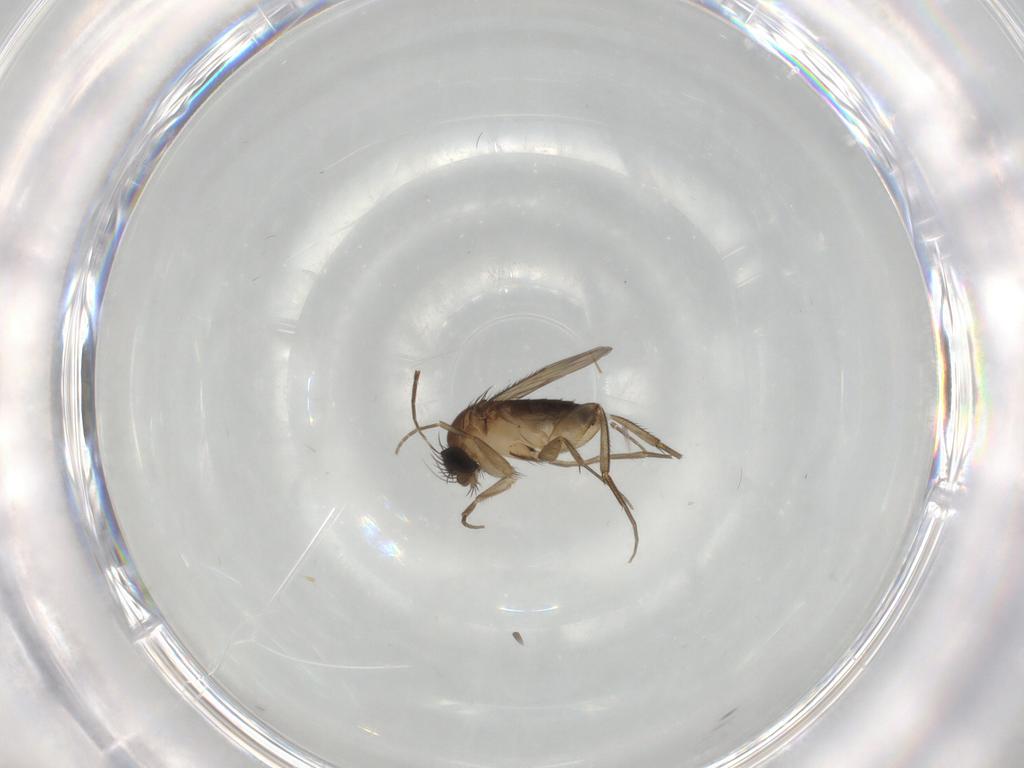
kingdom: Animalia
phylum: Arthropoda
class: Insecta
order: Diptera
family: Phoridae
